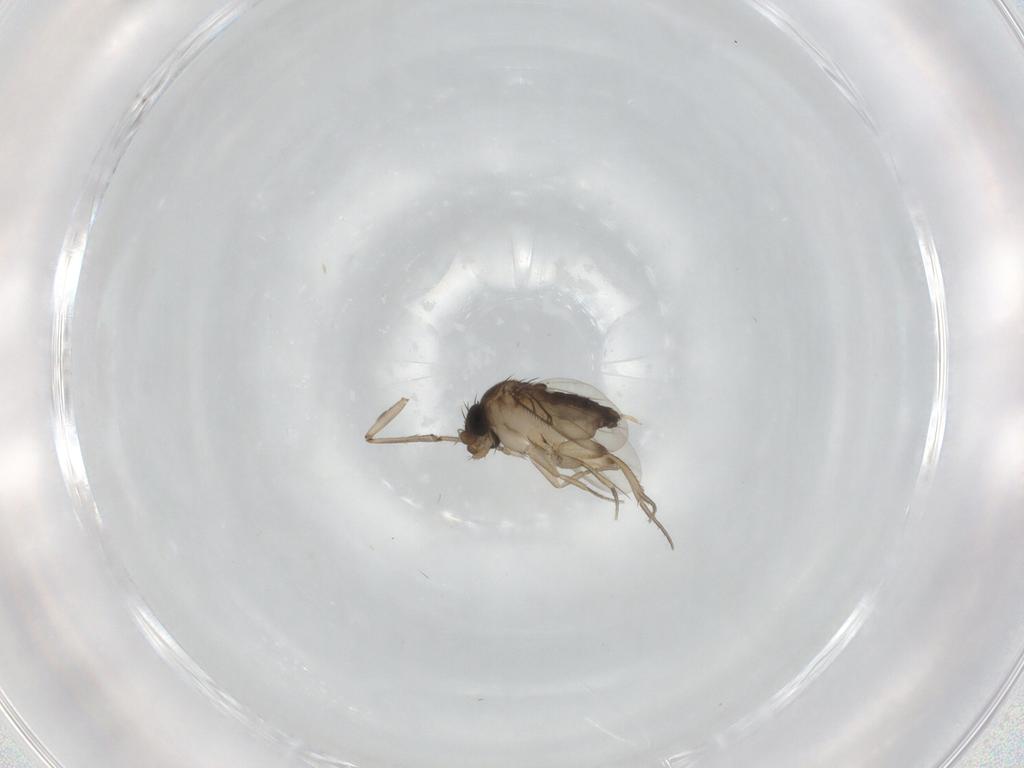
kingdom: Animalia
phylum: Arthropoda
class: Insecta
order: Diptera
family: Phoridae
